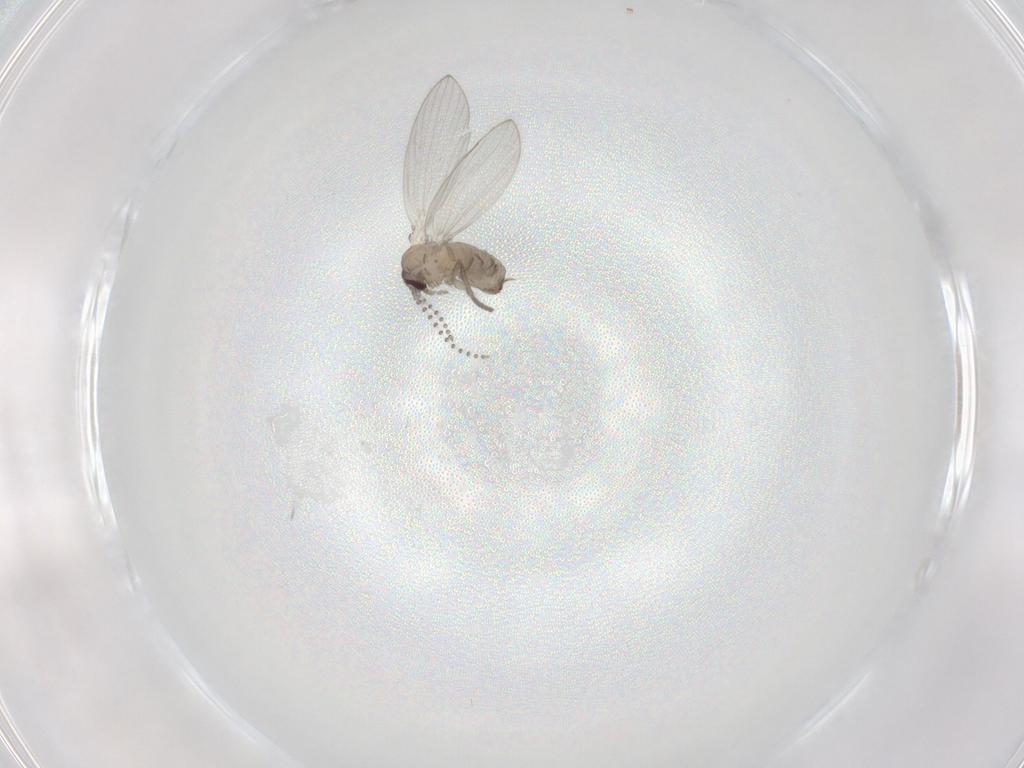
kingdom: Animalia
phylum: Arthropoda
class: Insecta
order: Diptera
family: Psychodidae
